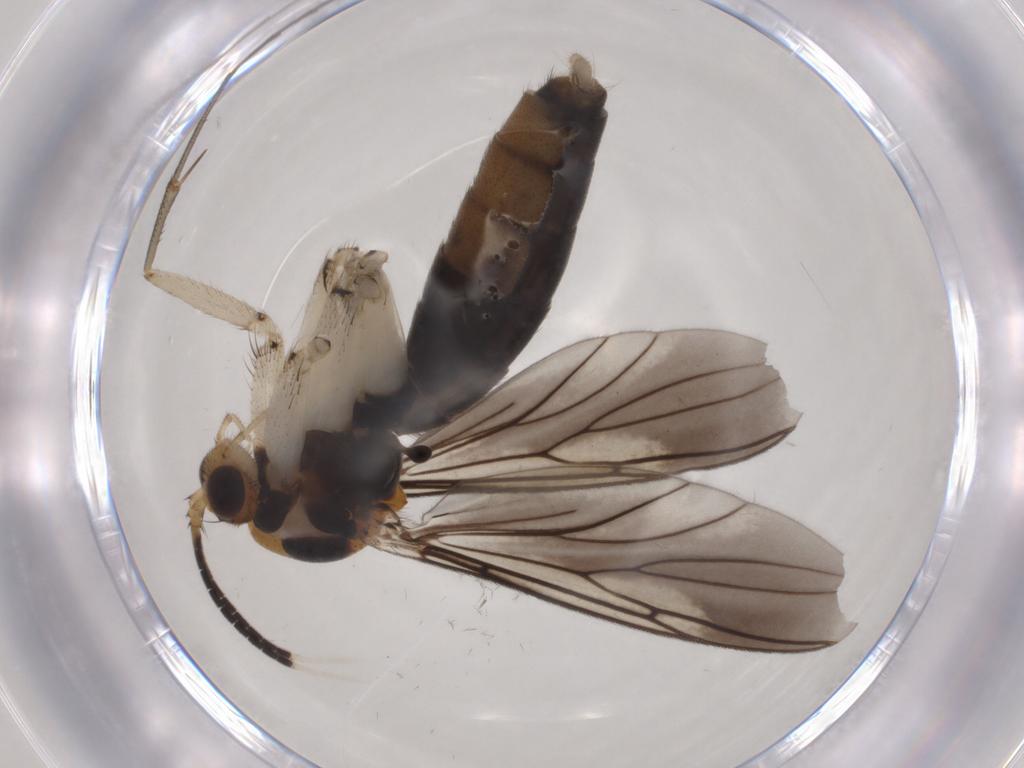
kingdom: Animalia
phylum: Arthropoda
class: Insecta
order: Diptera
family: Mycetophilidae
